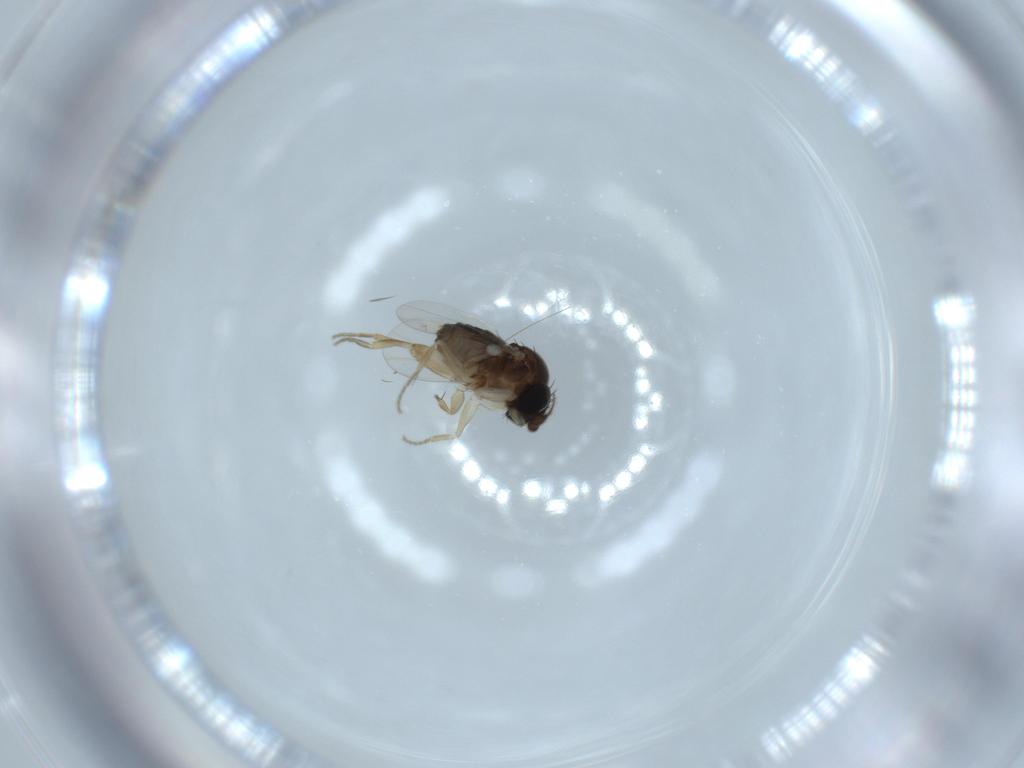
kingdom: Animalia
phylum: Arthropoda
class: Insecta
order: Diptera
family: Phoridae
